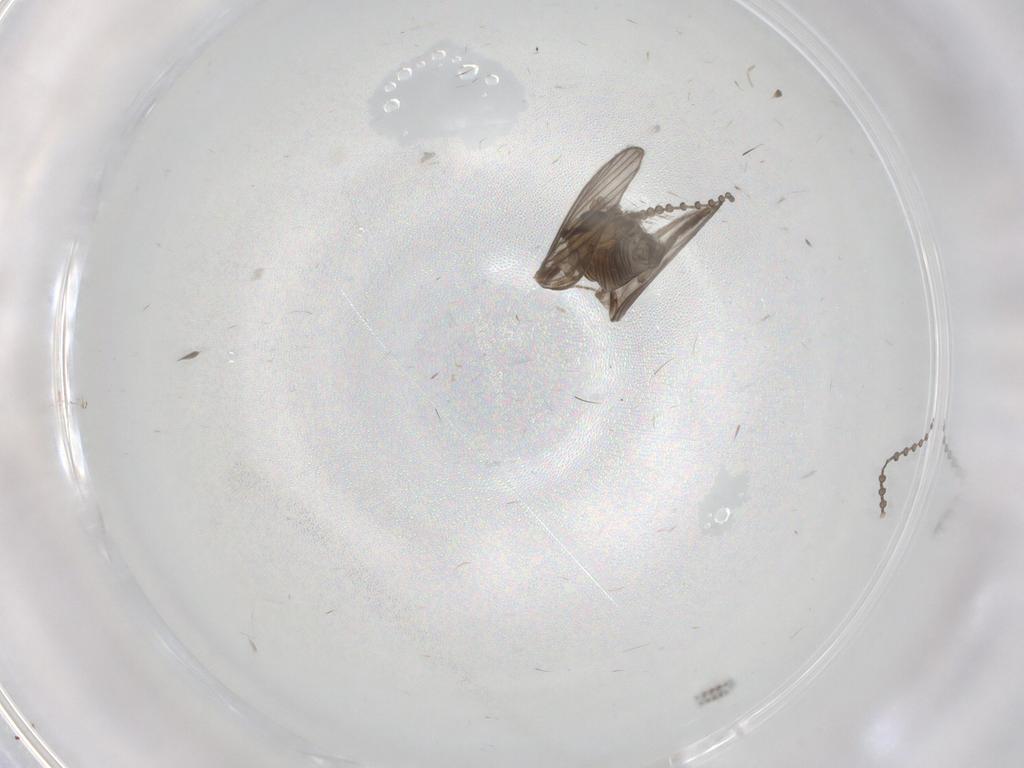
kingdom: Animalia
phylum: Arthropoda
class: Insecta
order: Diptera
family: Psychodidae
